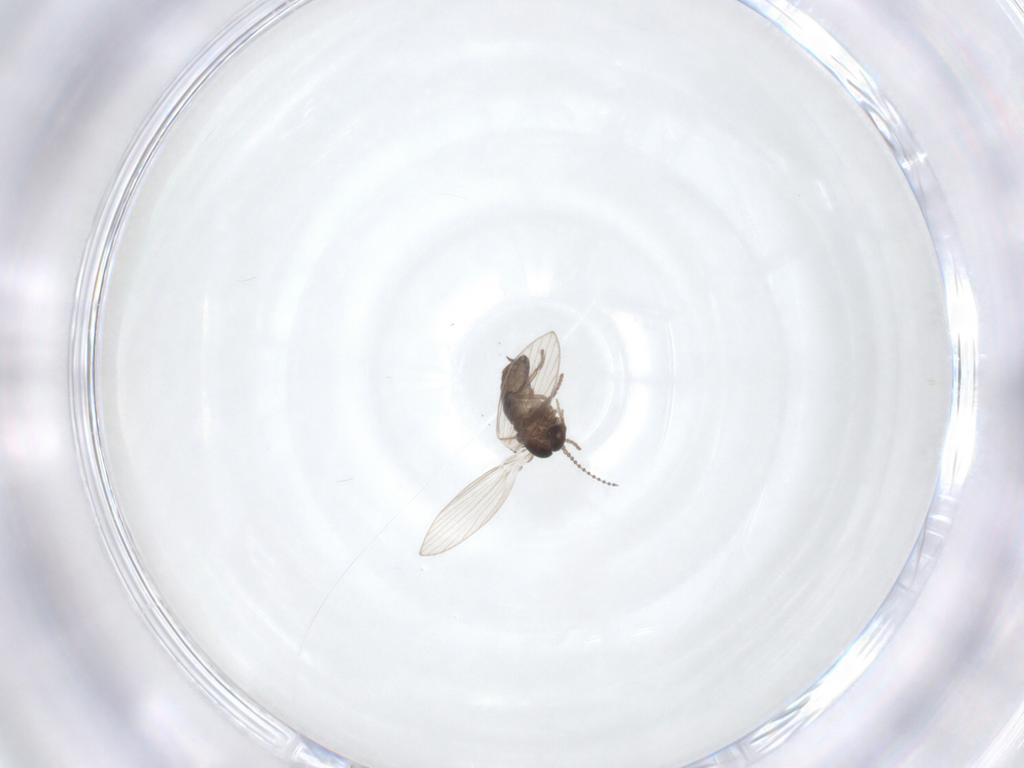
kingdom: Animalia
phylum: Arthropoda
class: Insecta
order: Diptera
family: Psychodidae
